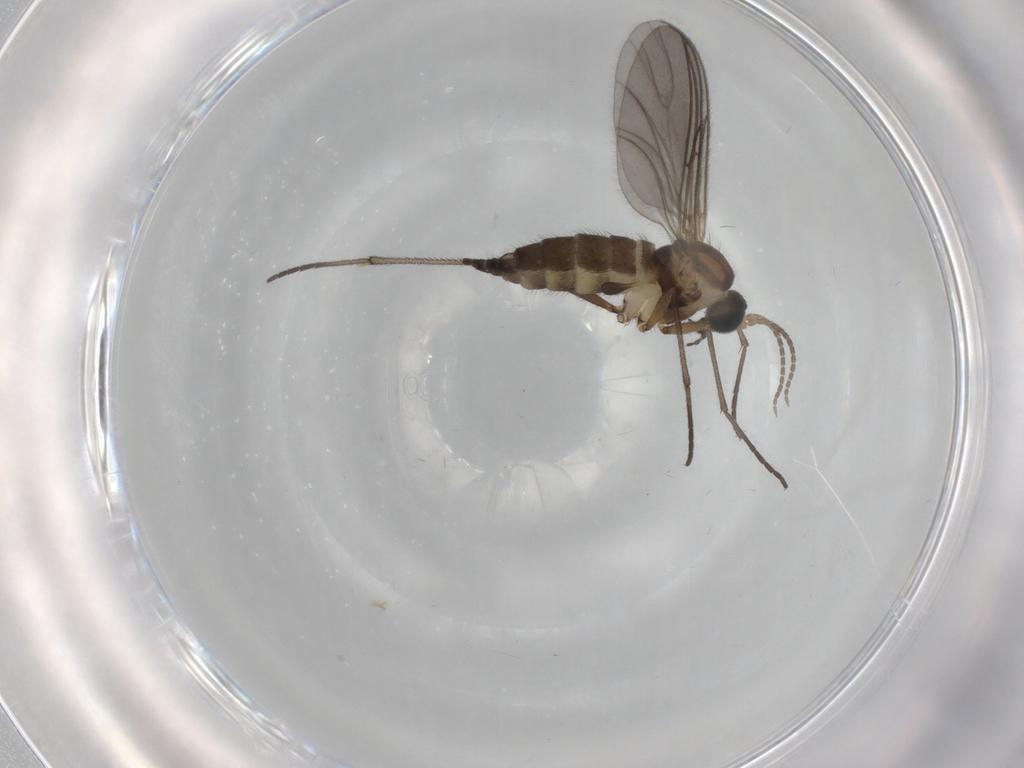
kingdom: Animalia
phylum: Arthropoda
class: Insecta
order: Diptera
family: Sciaridae
